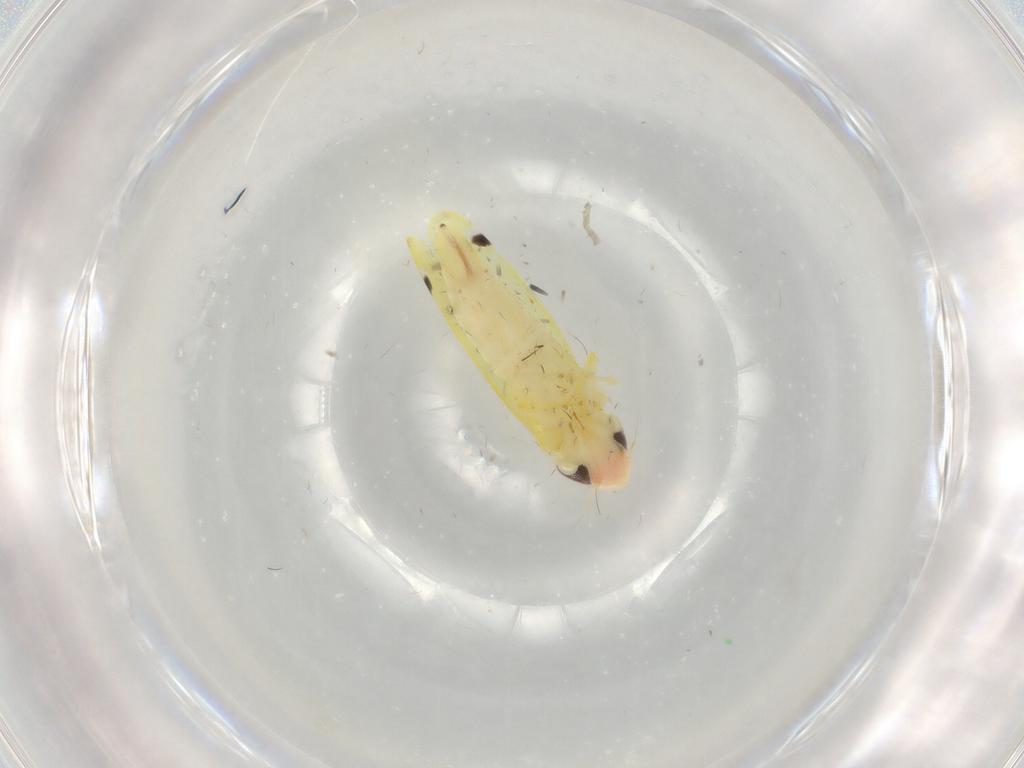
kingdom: Animalia
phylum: Arthropoda
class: Insecta
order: Hemiptera
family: Cicadellidae
